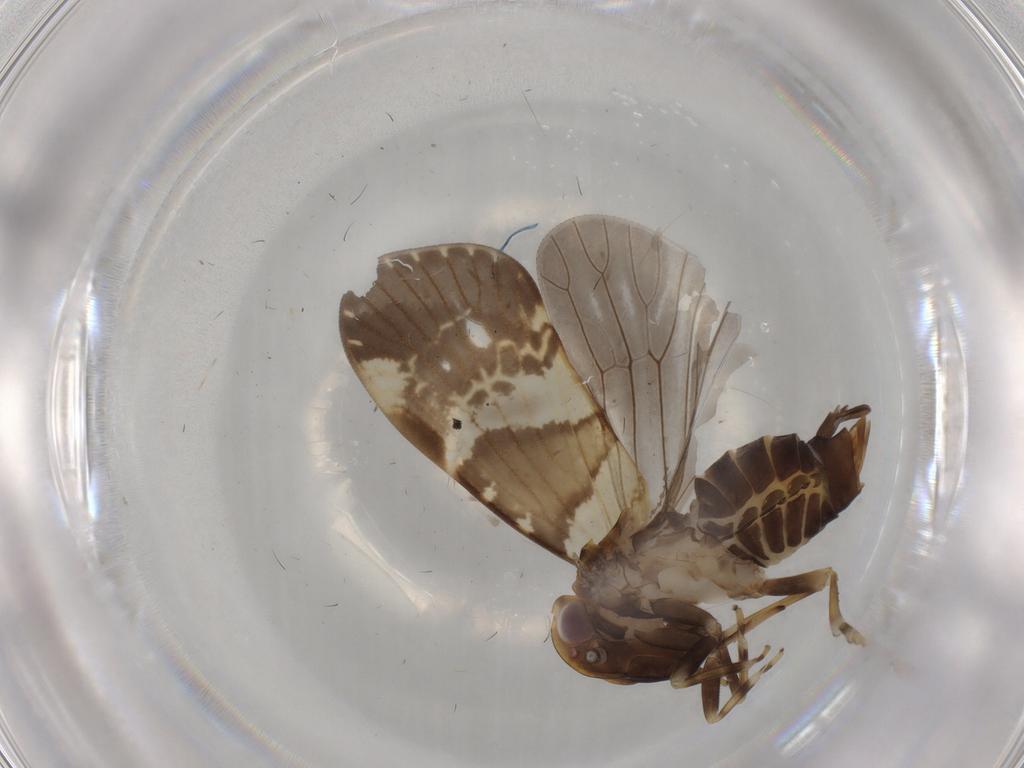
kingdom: Animalia
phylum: Arthropoda
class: Insecta
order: Hemiptera
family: Cixiidae
